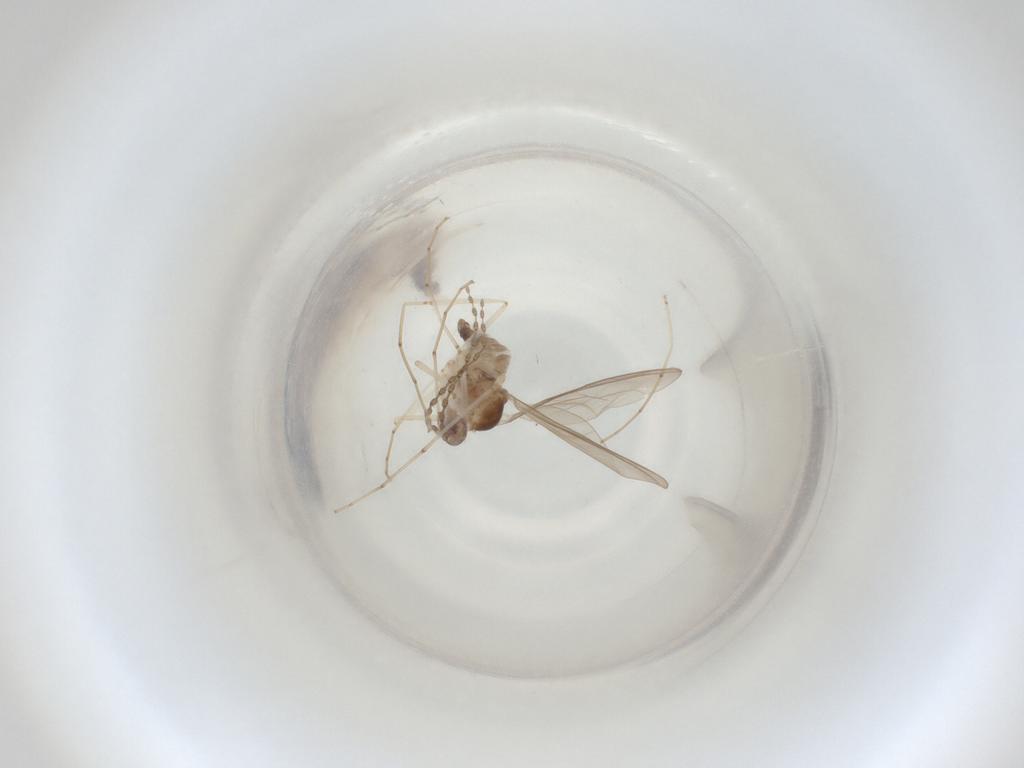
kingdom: Animalia
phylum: Arthropoda
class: Insecta
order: Diptera
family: Cecidomyiidae
